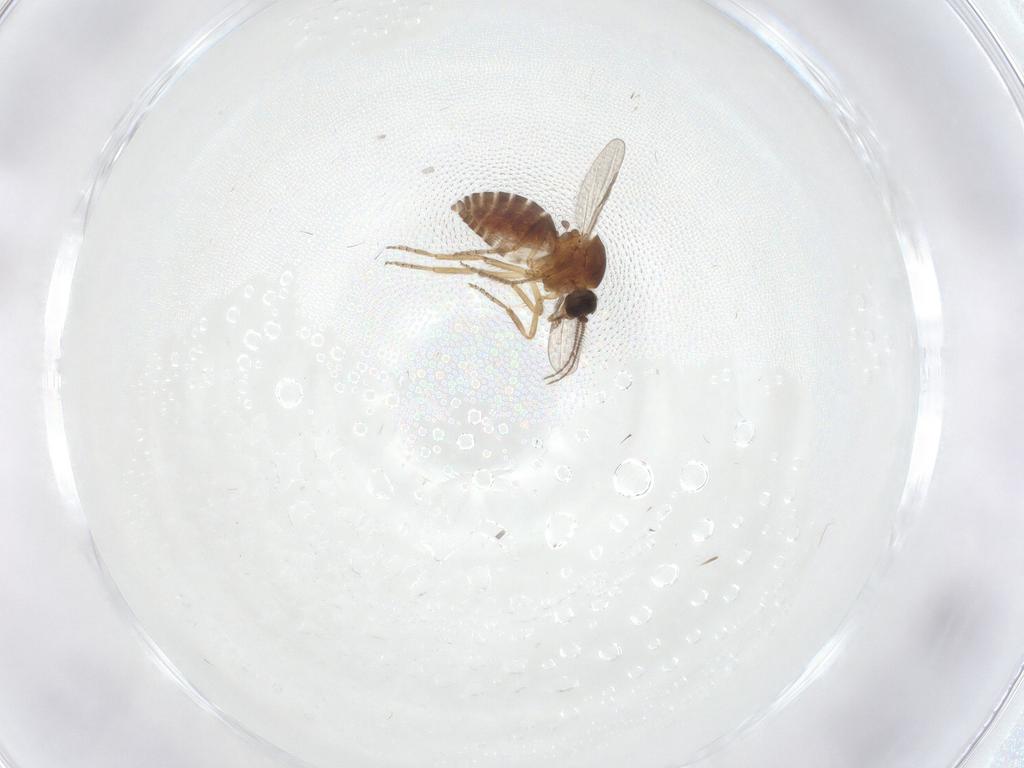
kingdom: Animalia
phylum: Arthropoda
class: Insecta
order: Diptera
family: Cecidomyiidae
